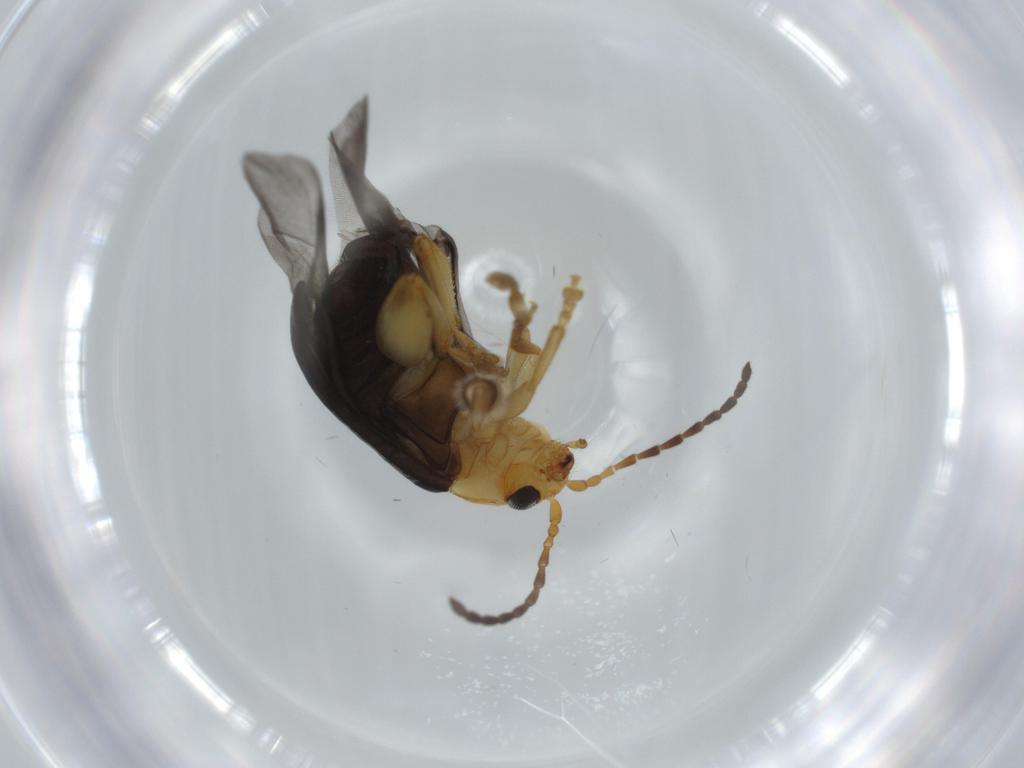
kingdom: Animalia
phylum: Arthropoda
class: Insecta
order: Coleoptera
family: Chrysomelidae
